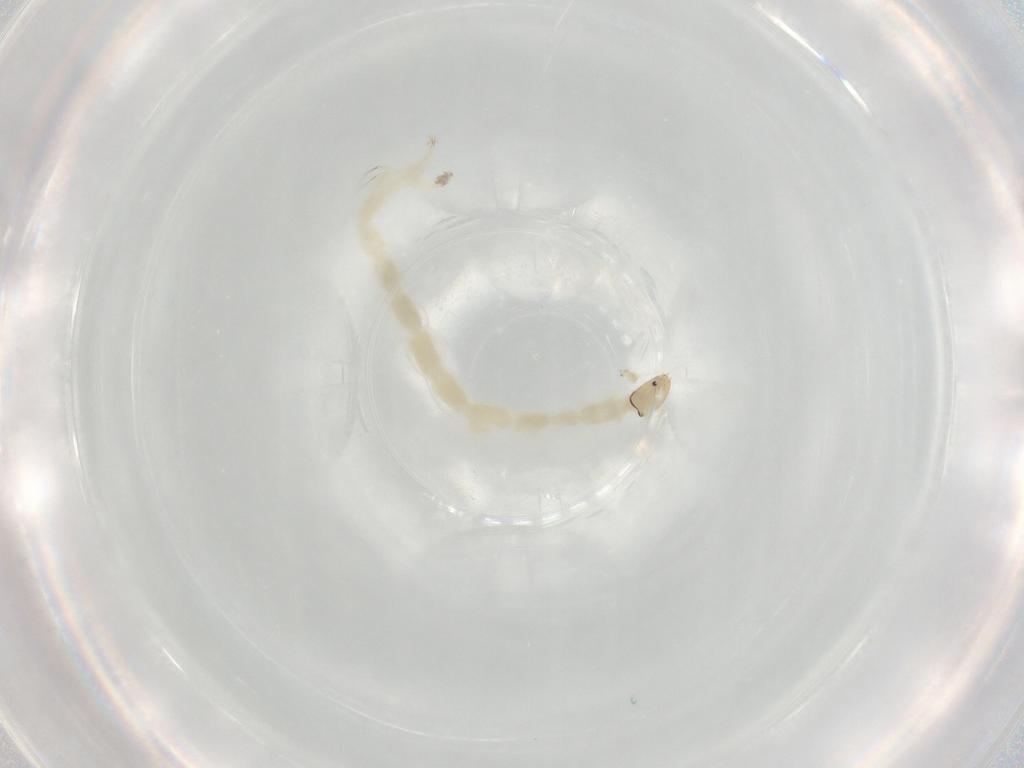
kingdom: Animalia
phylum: Arthropoda
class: Insecta
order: Diptera
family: Chironomidae
